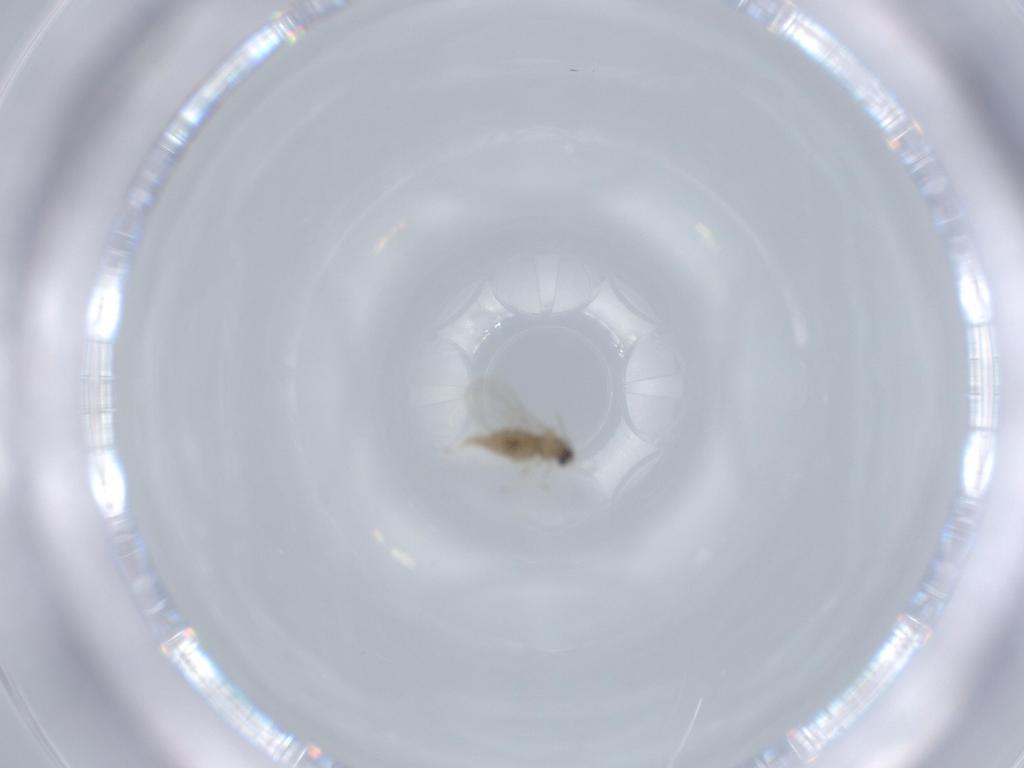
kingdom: Animalia
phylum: Arthropoda
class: Insecta
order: Diptera
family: Cecidomyiidae
